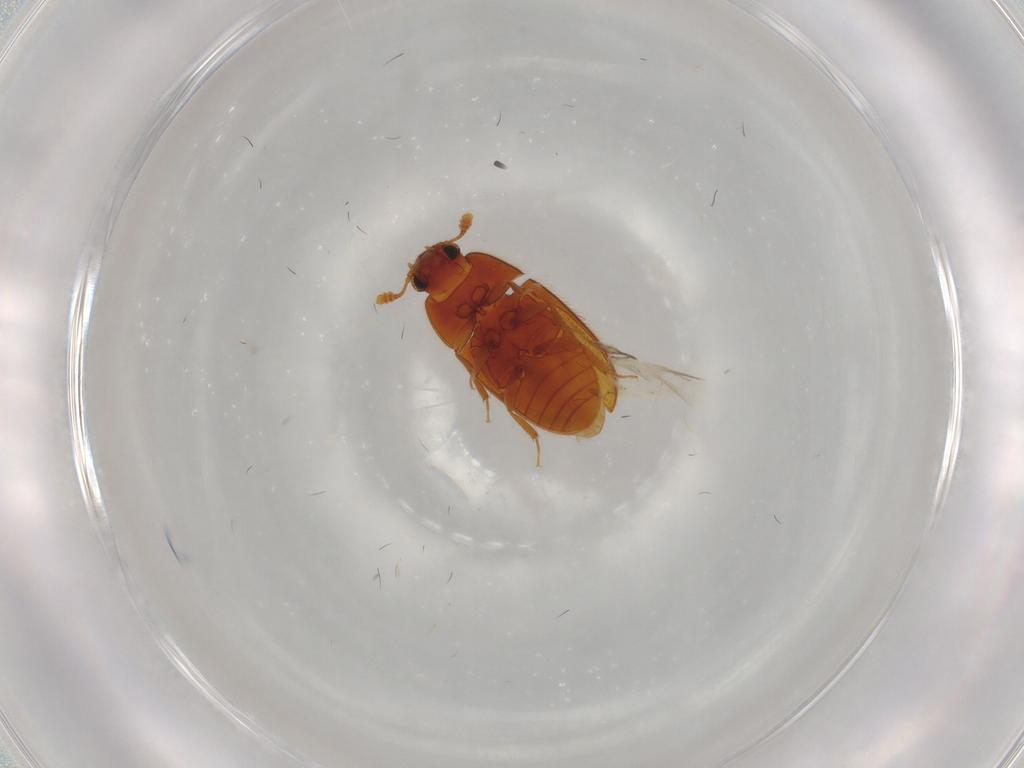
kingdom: Animalia
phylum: Arthropoda
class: Insecta
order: Coleoptera
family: Biphyllidae
